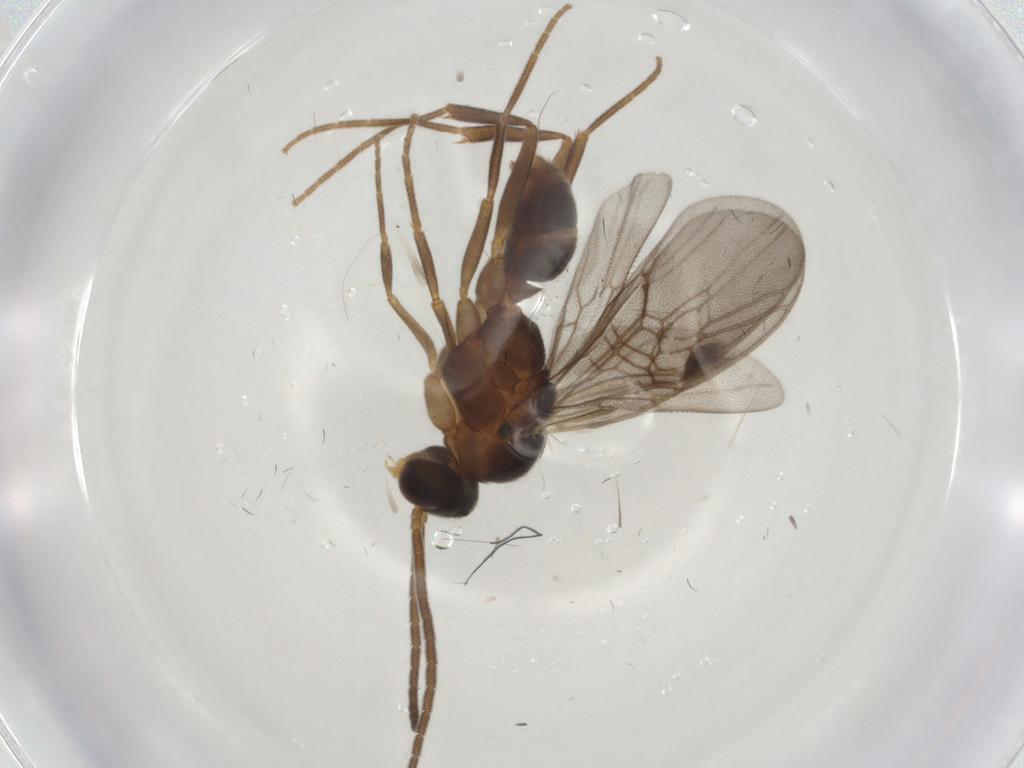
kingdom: Animalia
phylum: Arthropoda
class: Insecta
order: Hymenoptera
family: Formicidae
